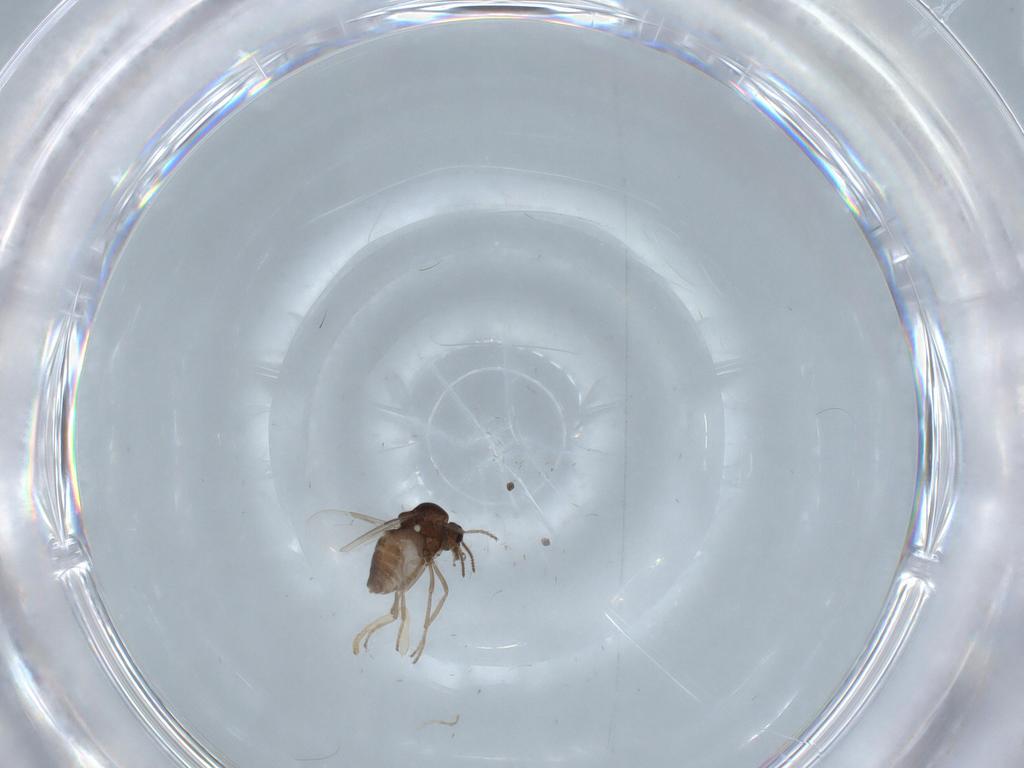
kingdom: Animalia
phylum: Arthropoda
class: Insecta
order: Diptera
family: Ceratopogonidae
